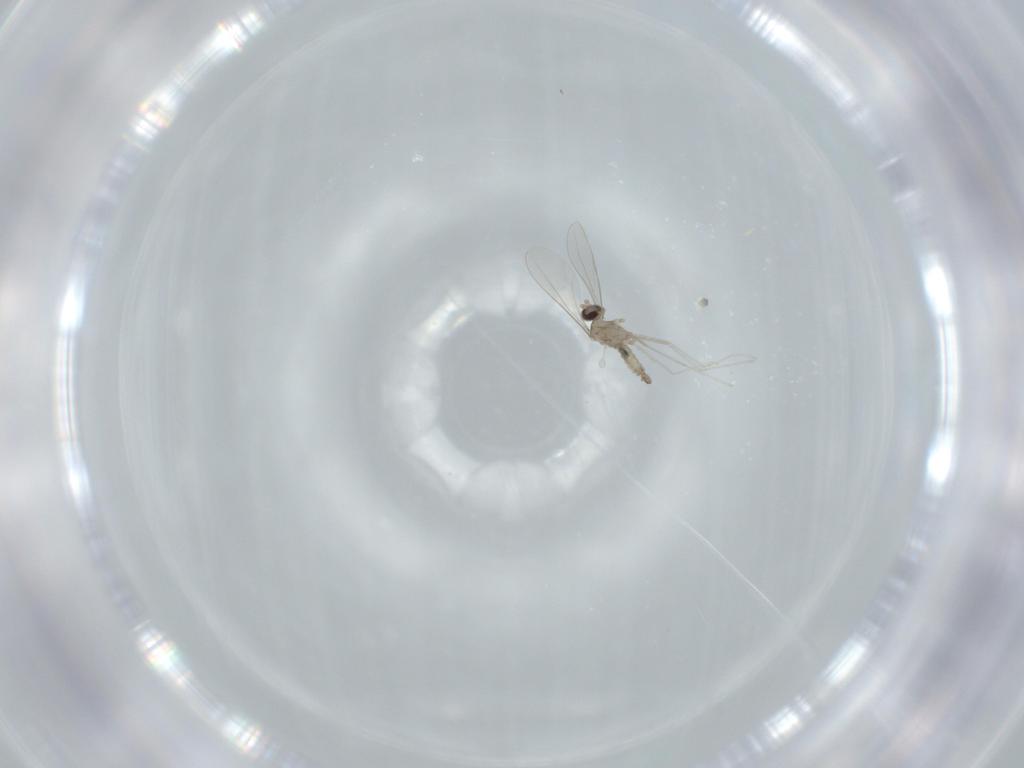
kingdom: Animalia
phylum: Arthropoda
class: Insecta
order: Diptera
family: Cecidomyiidae
